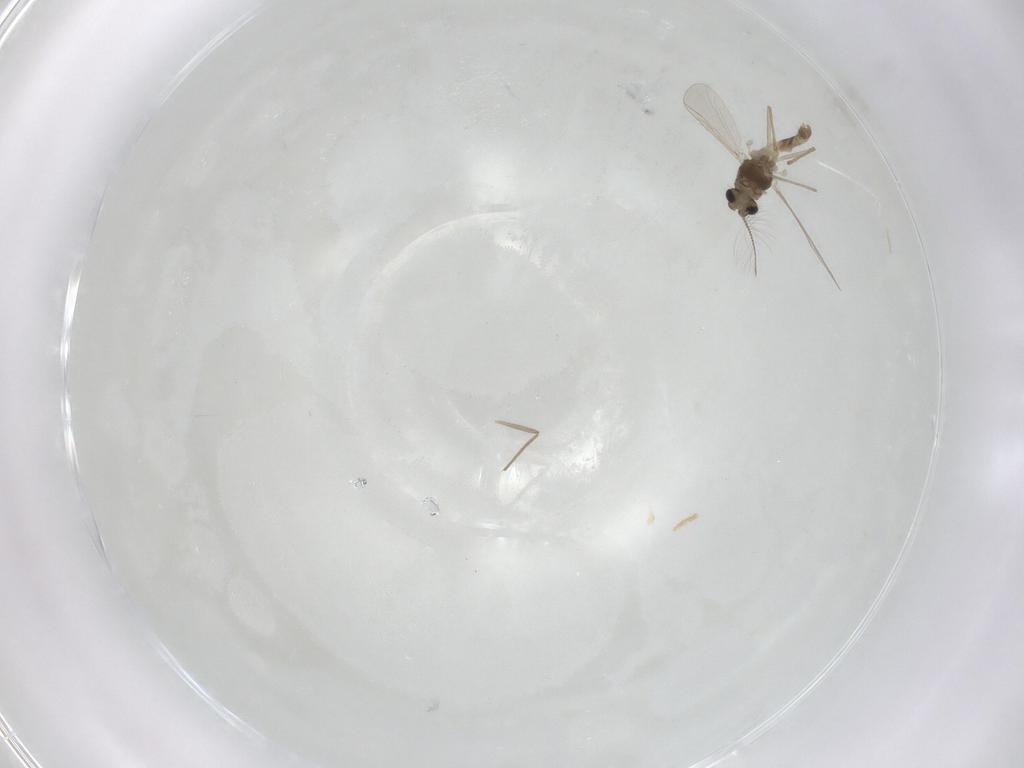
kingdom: Animalia
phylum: Arthropoda
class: Insecta
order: Diptera
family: Chironomidae
